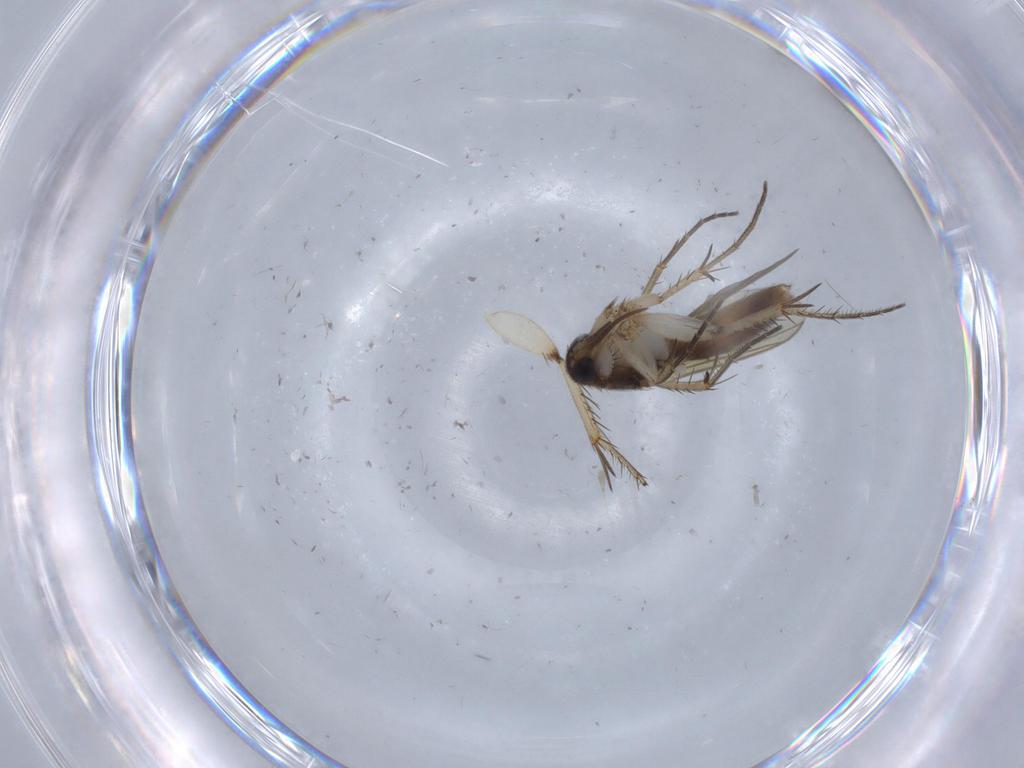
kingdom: Animalia
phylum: Arthropoda
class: Insecta
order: Diptera
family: Mycetophilidae
